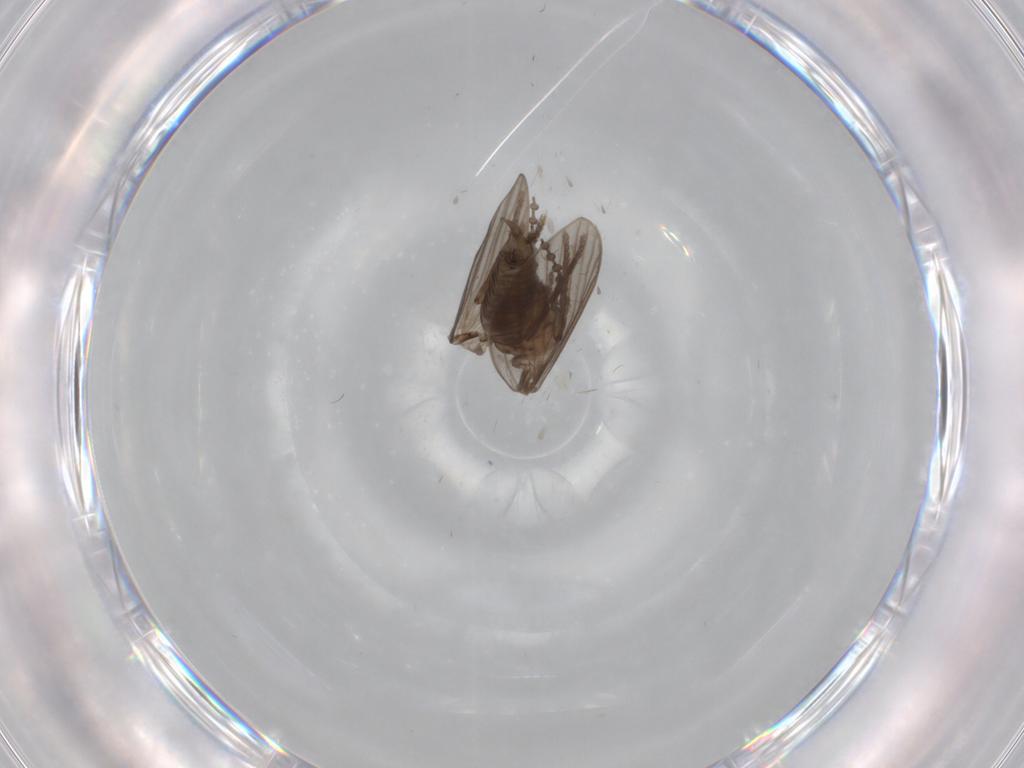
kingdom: Animalia
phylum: Arthropoda
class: Insecta
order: Diptera
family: Psychodidae
